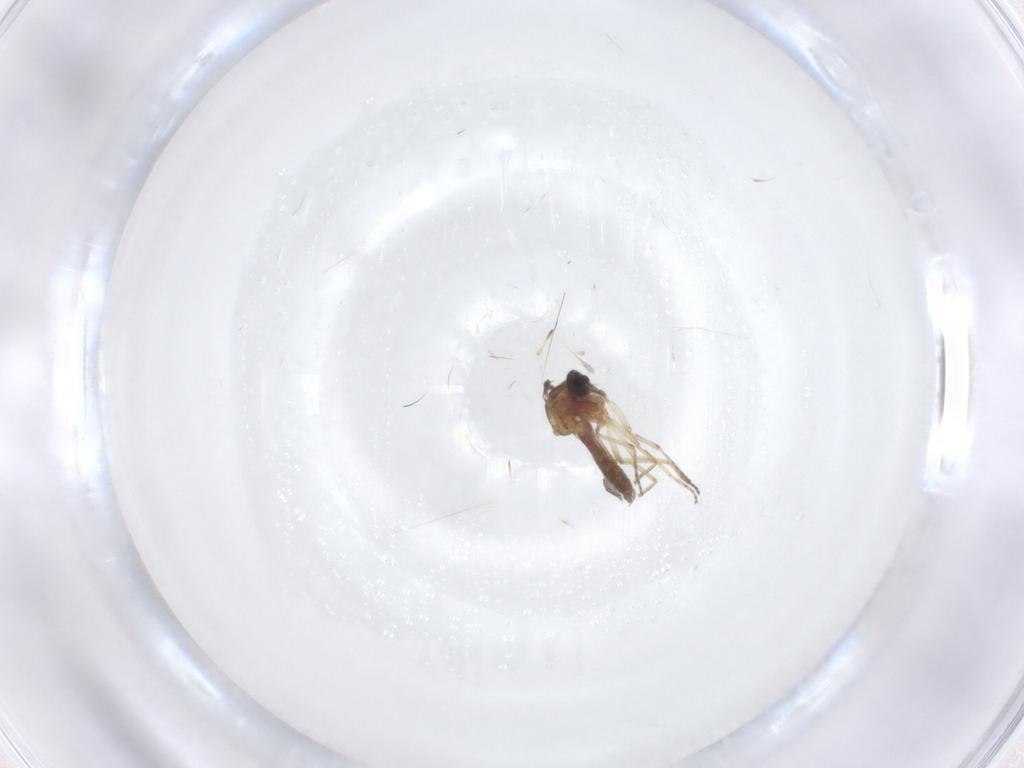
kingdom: Animalia
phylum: Arthropoda
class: Insecta
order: Diptera
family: Ceratopogonidae
